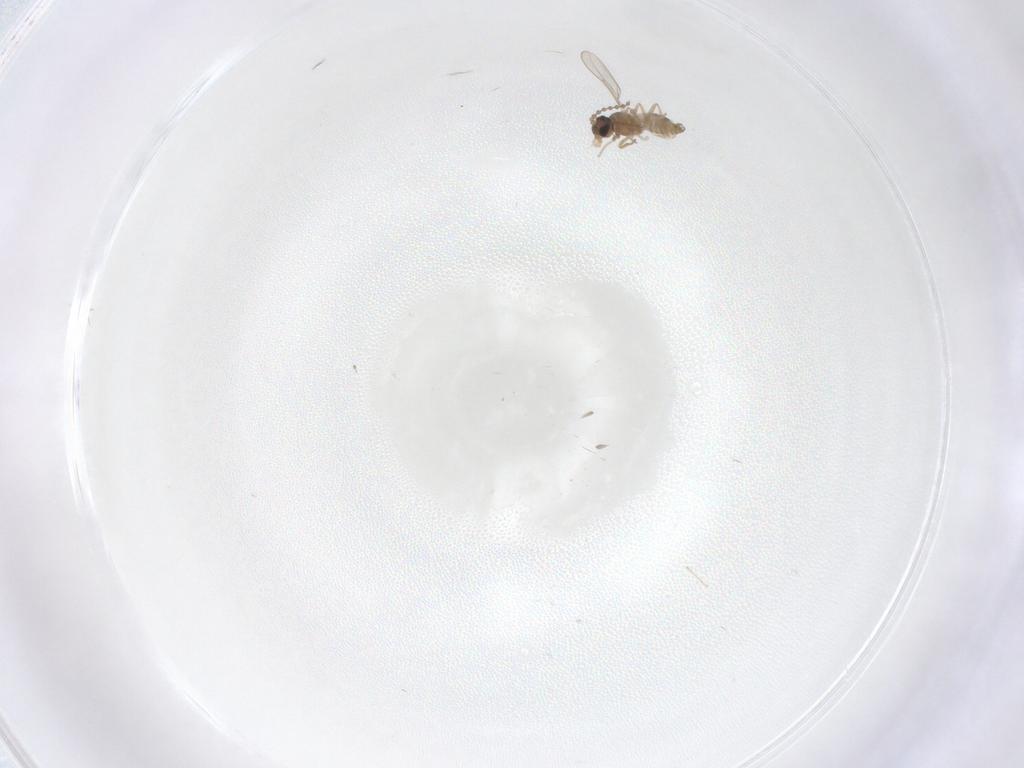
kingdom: Animalia
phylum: Arthropoda
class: Insecta
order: Diptera
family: Cecidomyiidae
